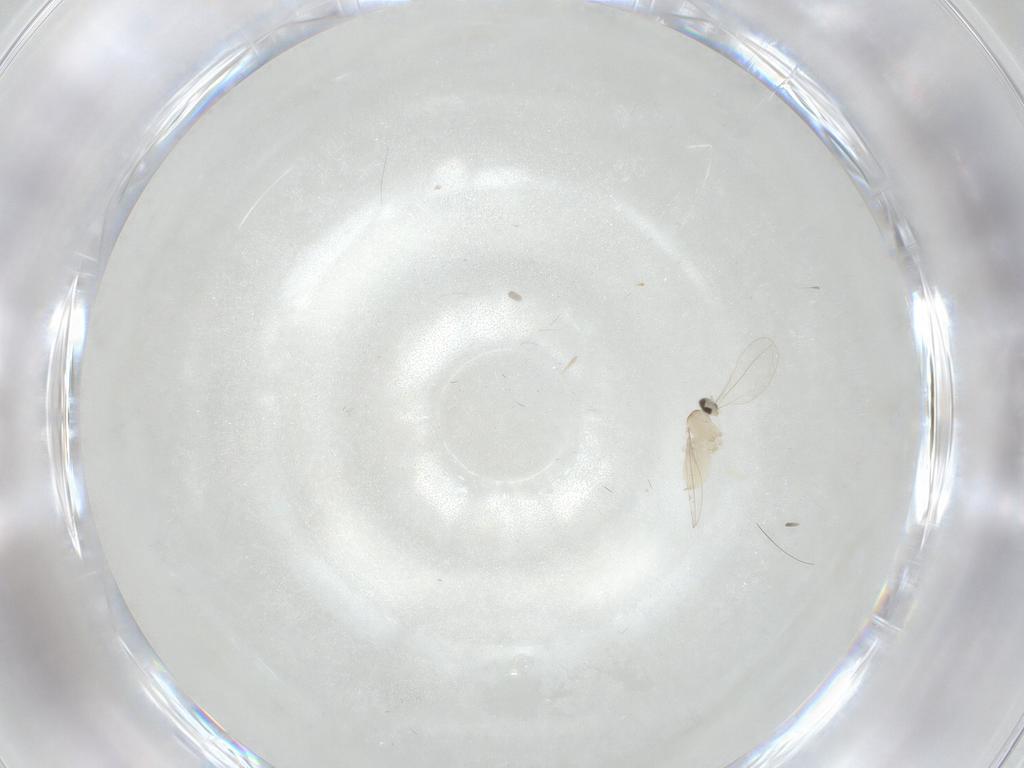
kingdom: Animalia
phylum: Arthropoda
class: Insecta
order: Diptera
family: Cecidomyiidae
